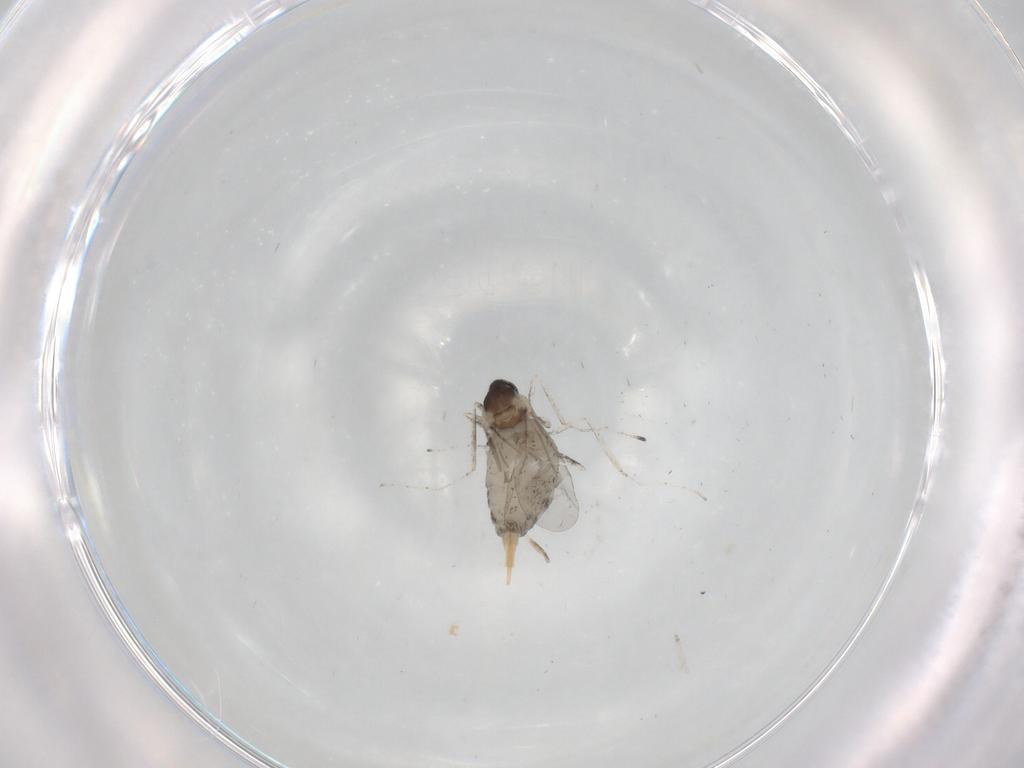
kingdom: Animalia
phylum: Arthropoda
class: Insecta
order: Diptera
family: Cecidomyiidae
